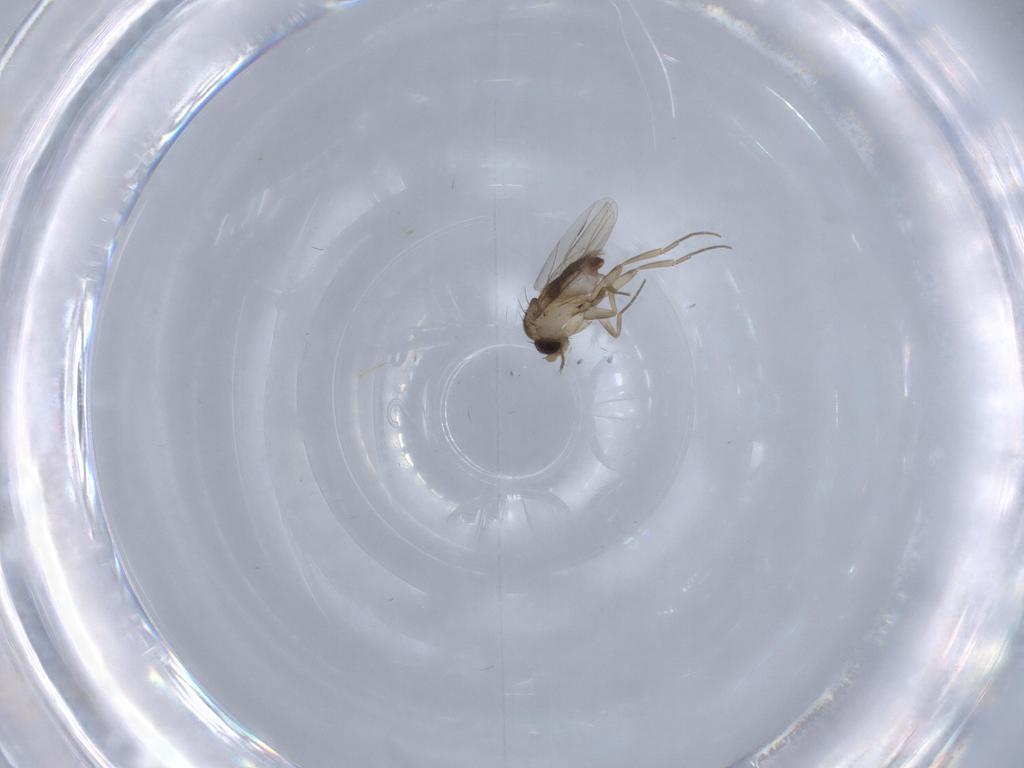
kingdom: Animalia
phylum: Arthropoda
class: Insecta
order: Diptera
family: Phoridae
